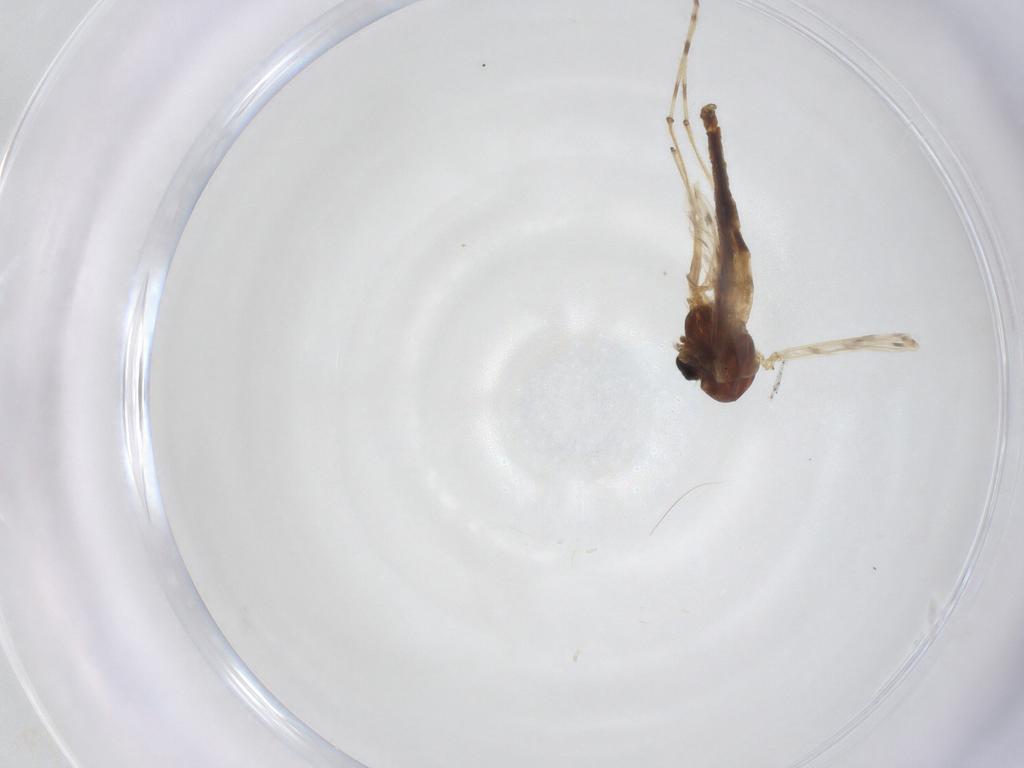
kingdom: Animalia
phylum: Arthropoda
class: Insecta
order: Diptera
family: Chironomidae
